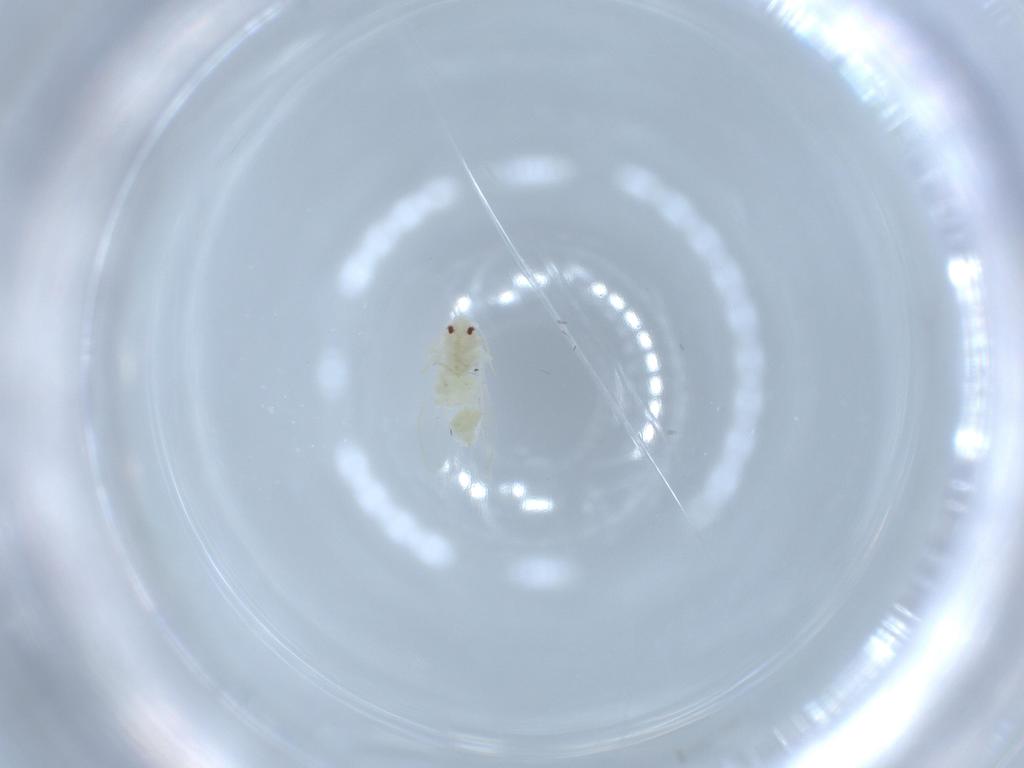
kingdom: Animalia
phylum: Arthropoda
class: Insecta
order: Hemiptera
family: Aleyrodidae
